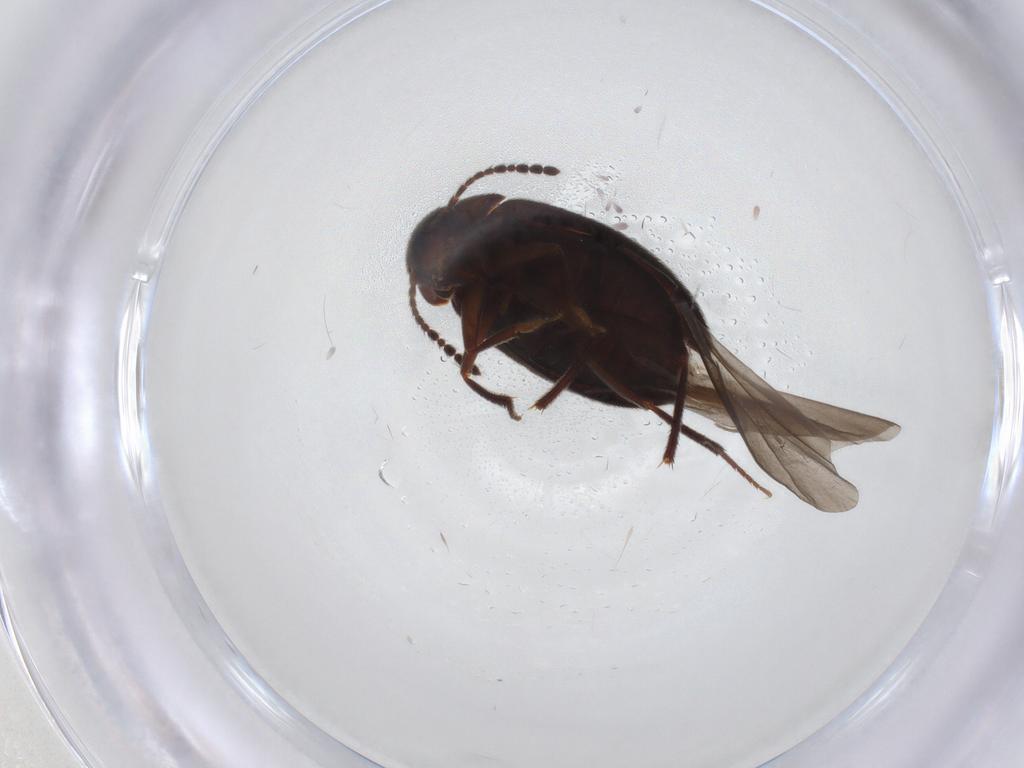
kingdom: Animalia
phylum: Arthropoda
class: Insecta
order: Coleoptera
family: Leiodidae
